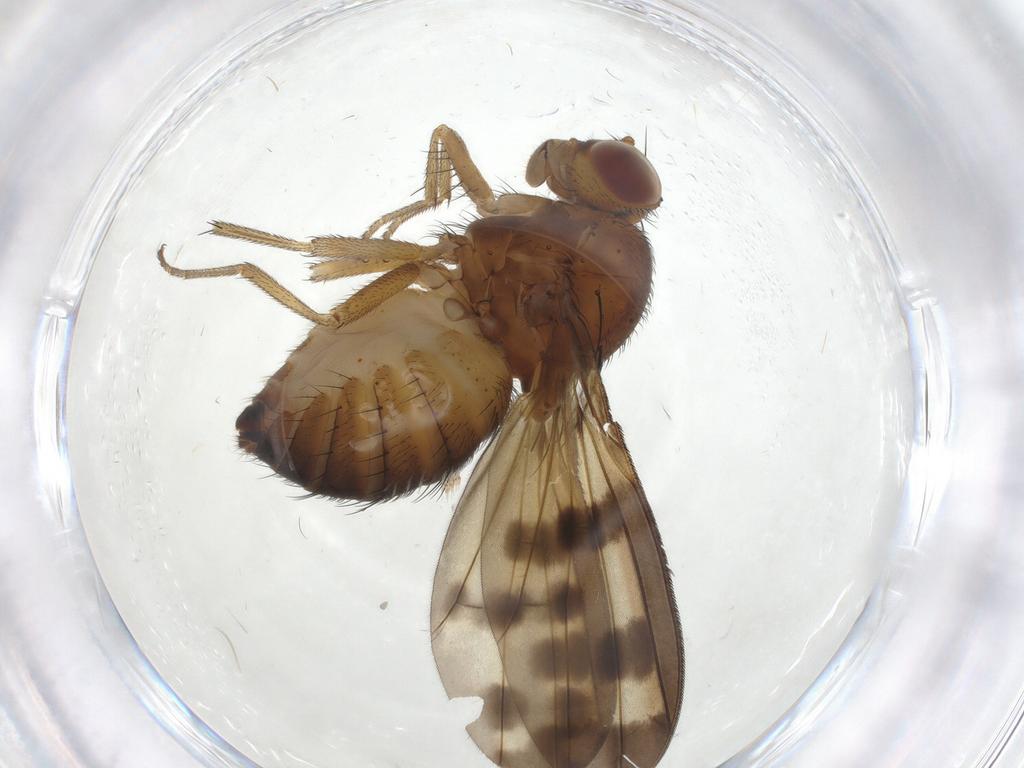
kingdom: Animalia
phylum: Arthropoda
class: Insecta
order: Diptera
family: Lauxaniidae
